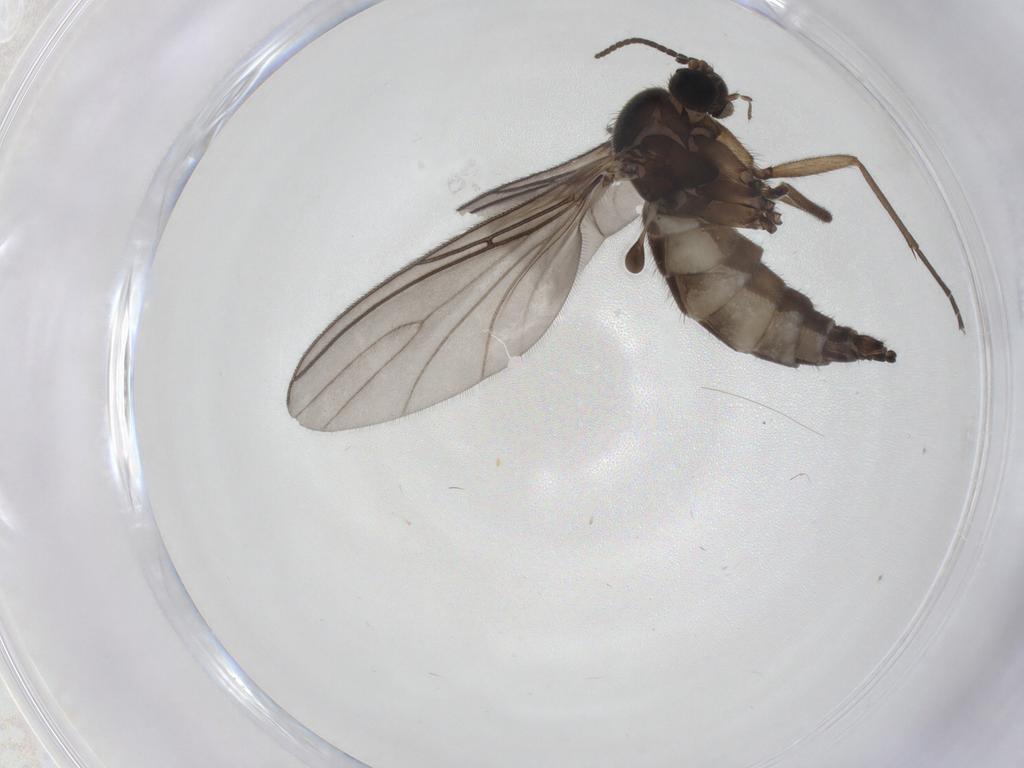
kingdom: Animalia
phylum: Arthropoda
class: Insecta
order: Diptera
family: Sciaridae
